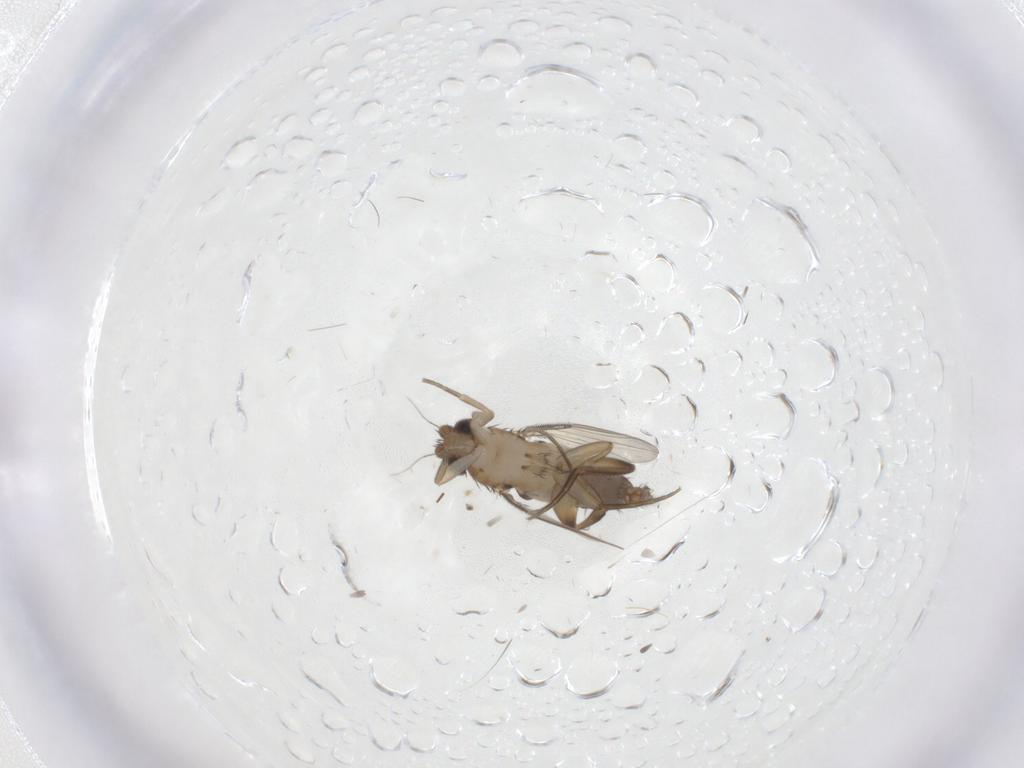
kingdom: Animalia
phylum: Arthropoda
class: Insecta
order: Diptera
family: Phoridae
